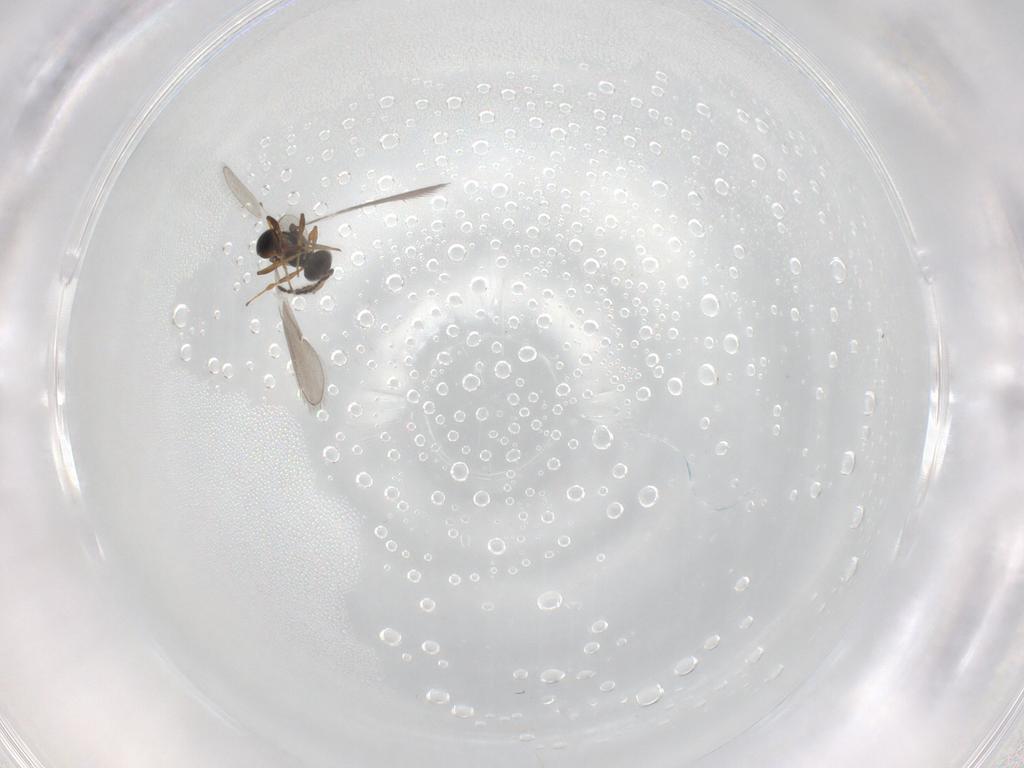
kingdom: Animalia
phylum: Arthropoda
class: Insecta
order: Hymenoptera
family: Platygastridae
